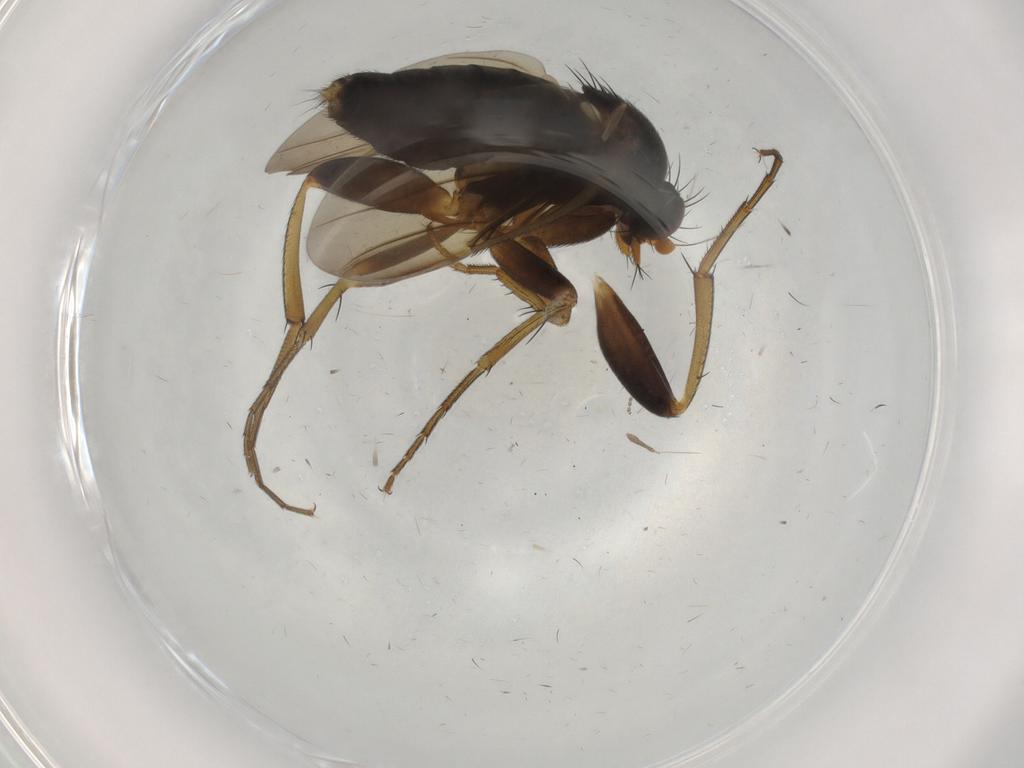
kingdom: Animalia
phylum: Arthropoda
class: Insecta
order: Diptera
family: Phoridae
